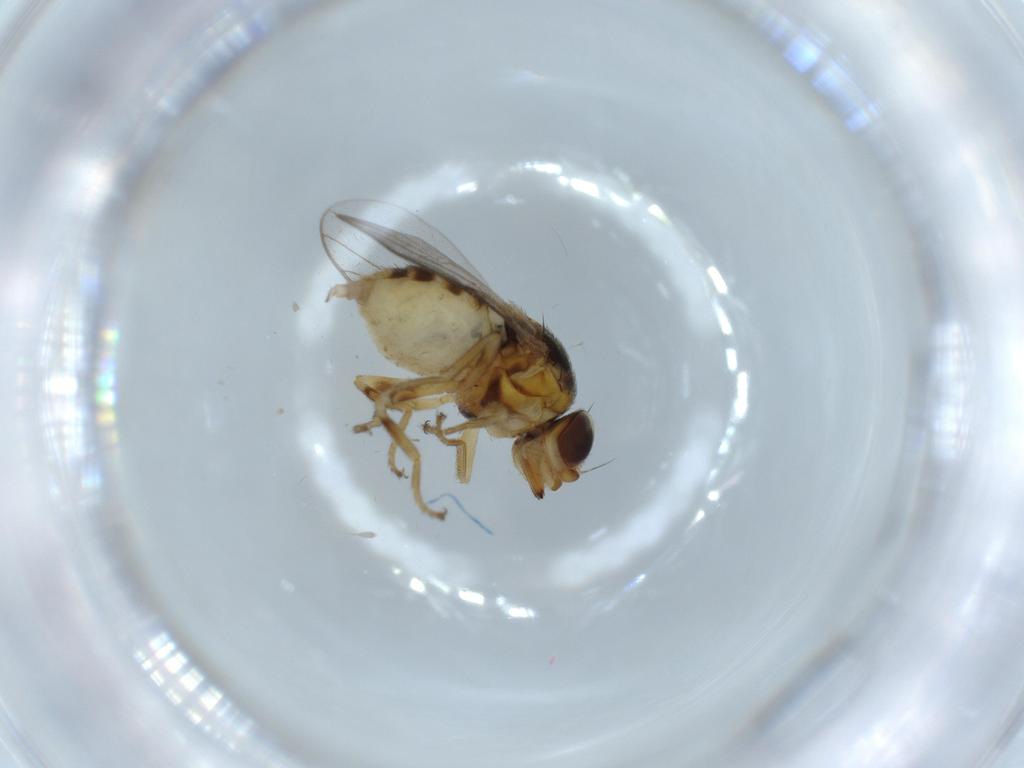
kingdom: Animalia
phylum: Arthropoda
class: Insecta
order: Diptera
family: Chloropidae
